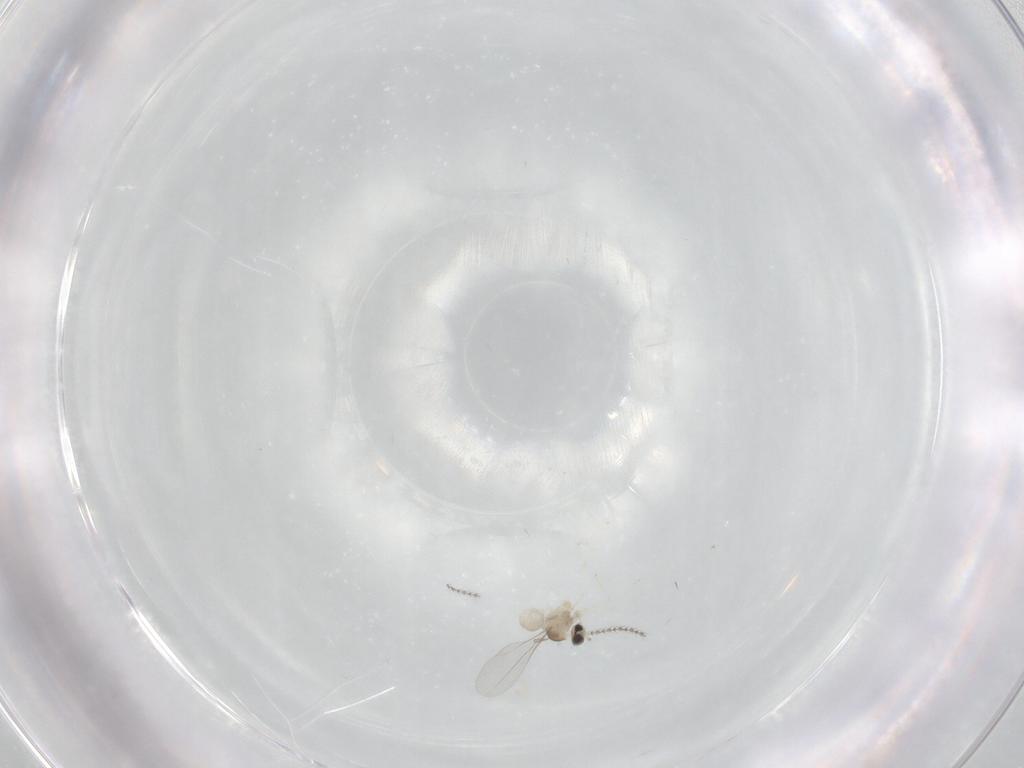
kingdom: Animalia
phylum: Arthropoda
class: Insecta
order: Diptera
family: Cecidomyiidae
